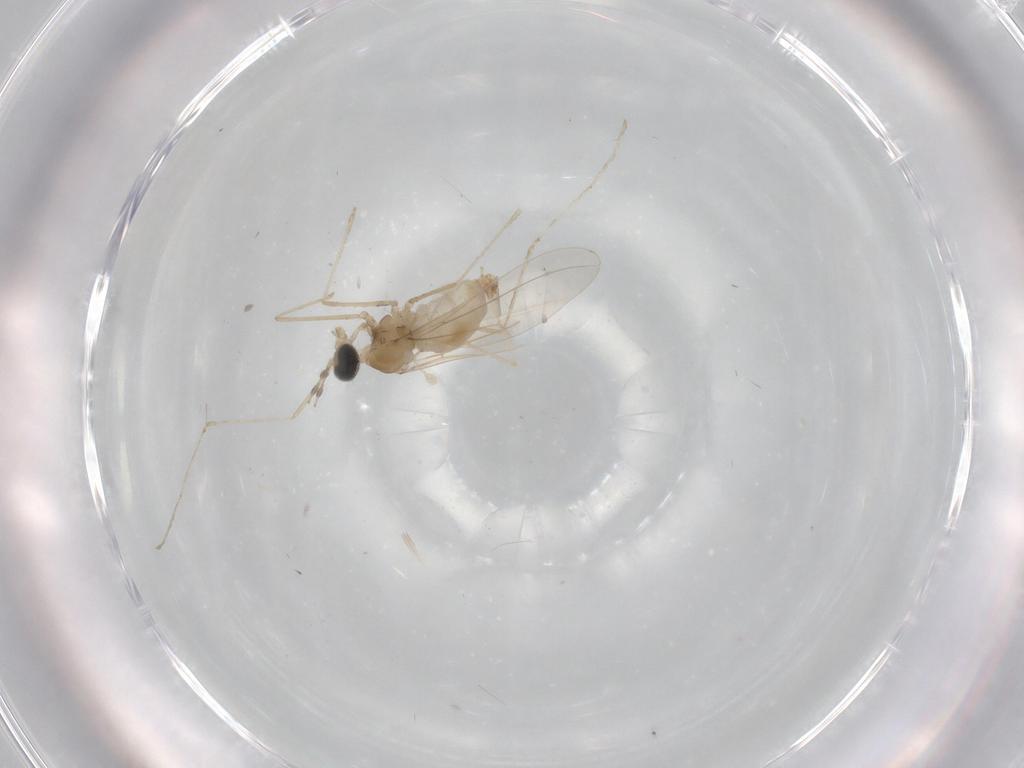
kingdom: Animalia
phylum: Arthropoda
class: Insecta
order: Diptera
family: Cecidomyiidae
